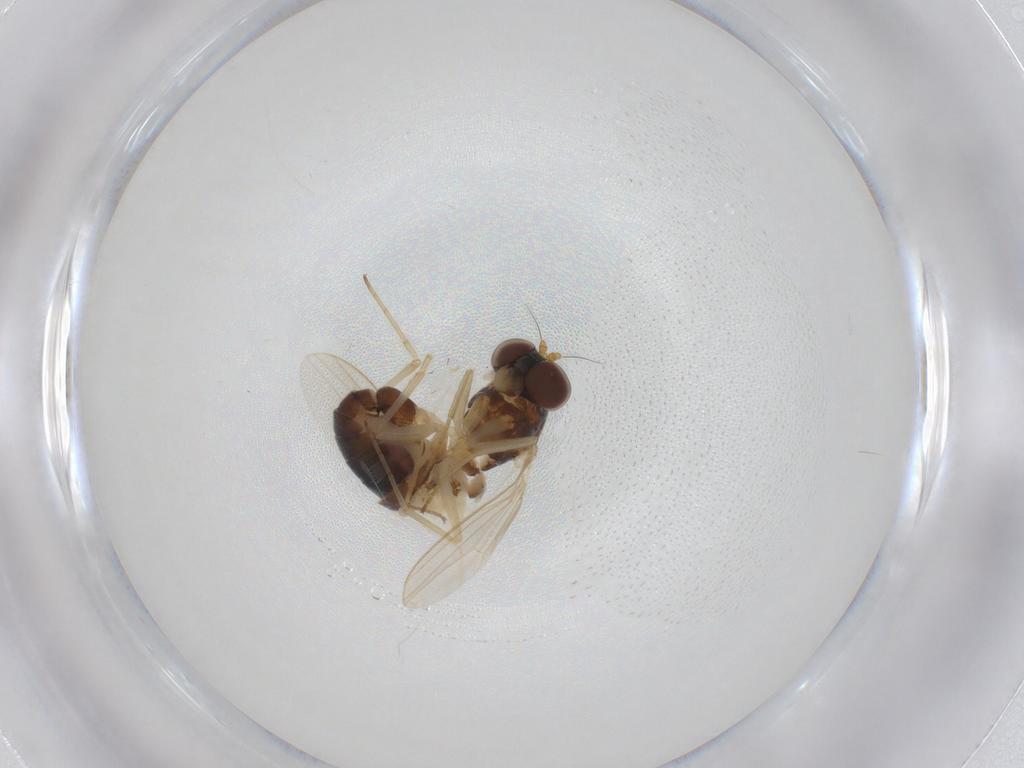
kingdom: Animalia
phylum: Arthropoda
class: Insecta
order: Diptera
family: Dolichopodidae
